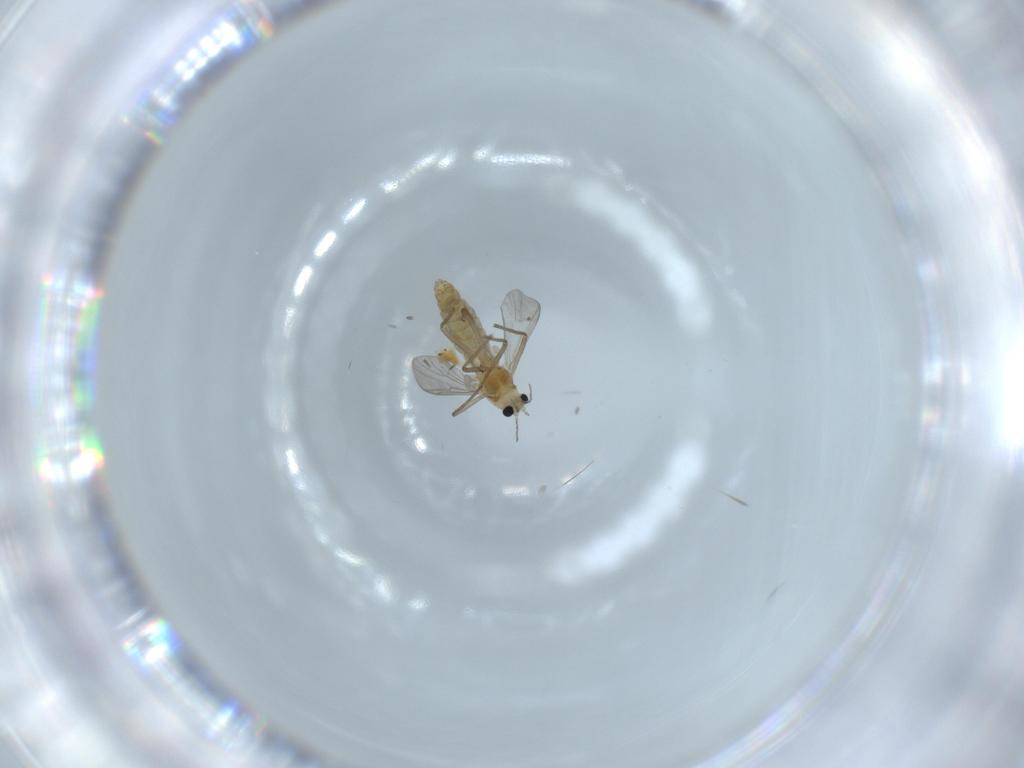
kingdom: Animalia
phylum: Arthropoda
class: Insecta
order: Diptera
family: Chironomidae
